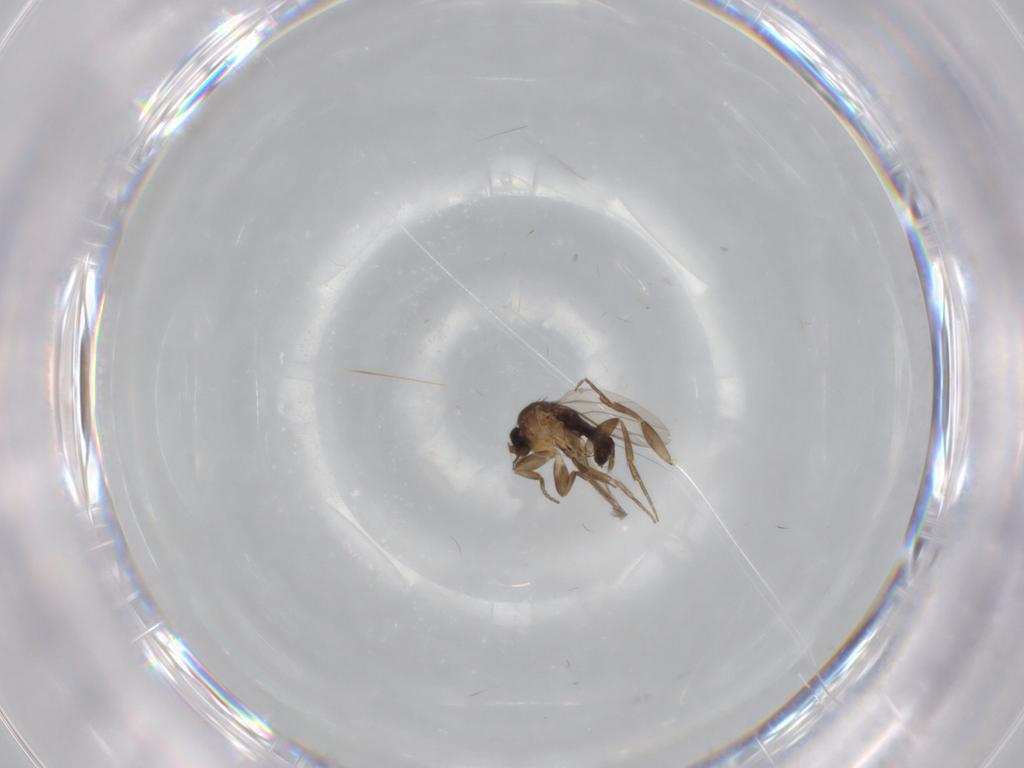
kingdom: Animalia
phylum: Arthropoda
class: Insecta
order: Diptera
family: Phoridae
